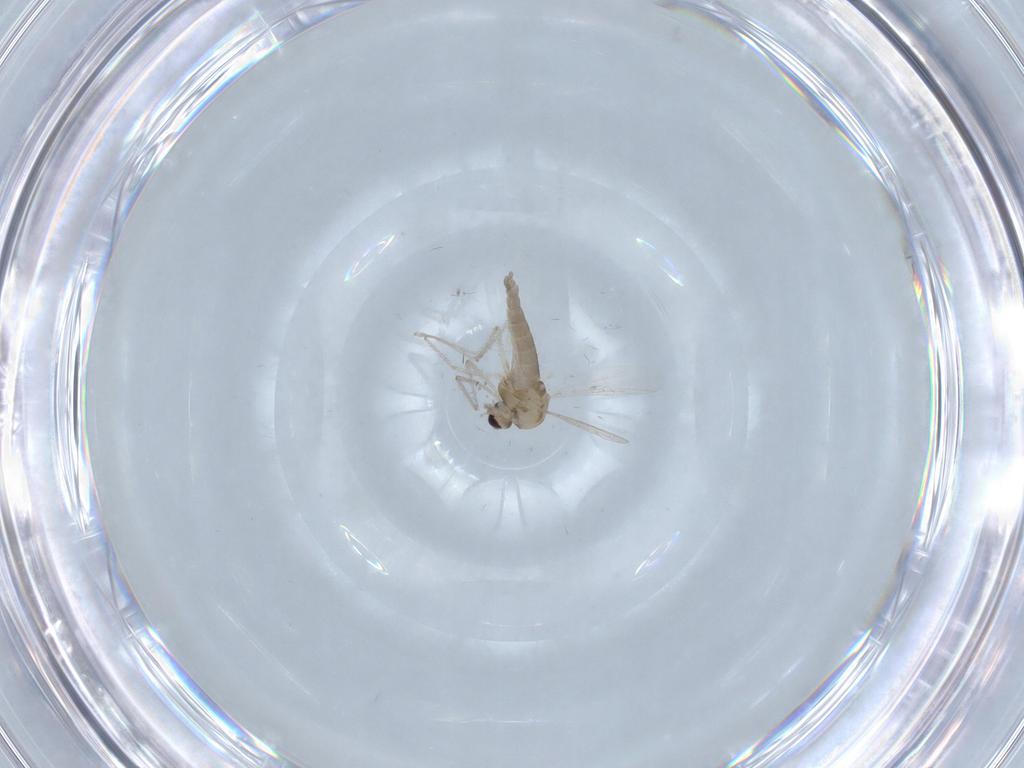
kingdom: Animalia
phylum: Arthropoda
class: Insecta
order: Diptera
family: Chironomidae
